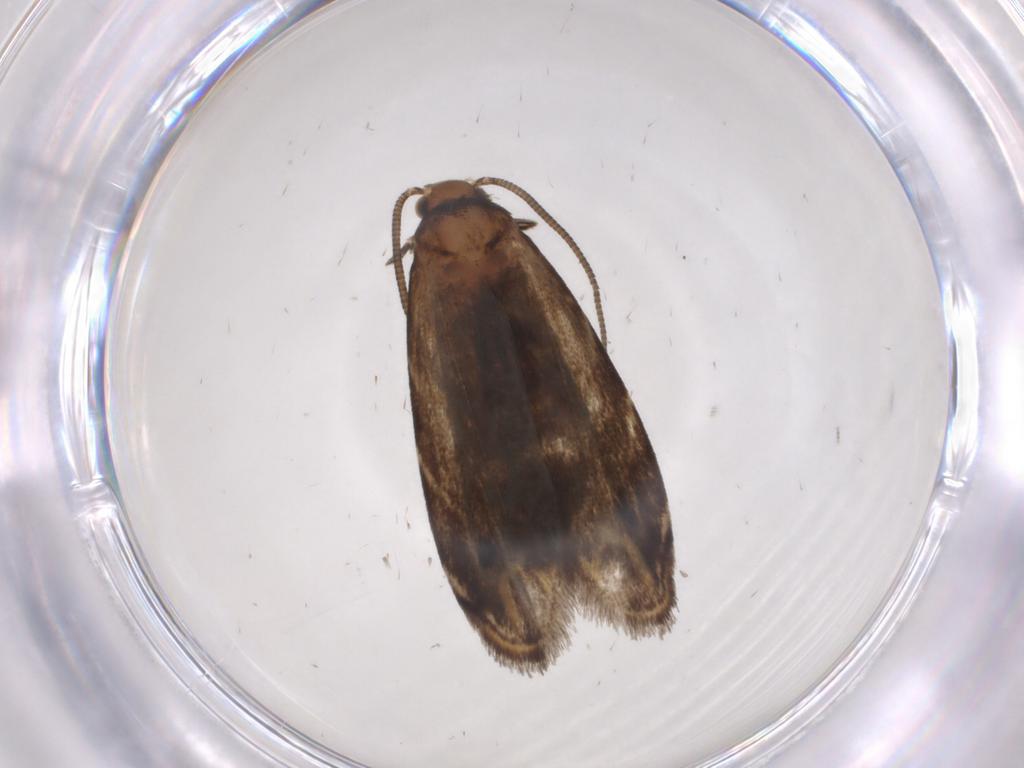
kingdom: Animalia
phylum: Arthropoda
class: Insecta
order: Lepidoptera
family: Dryadaulidae
